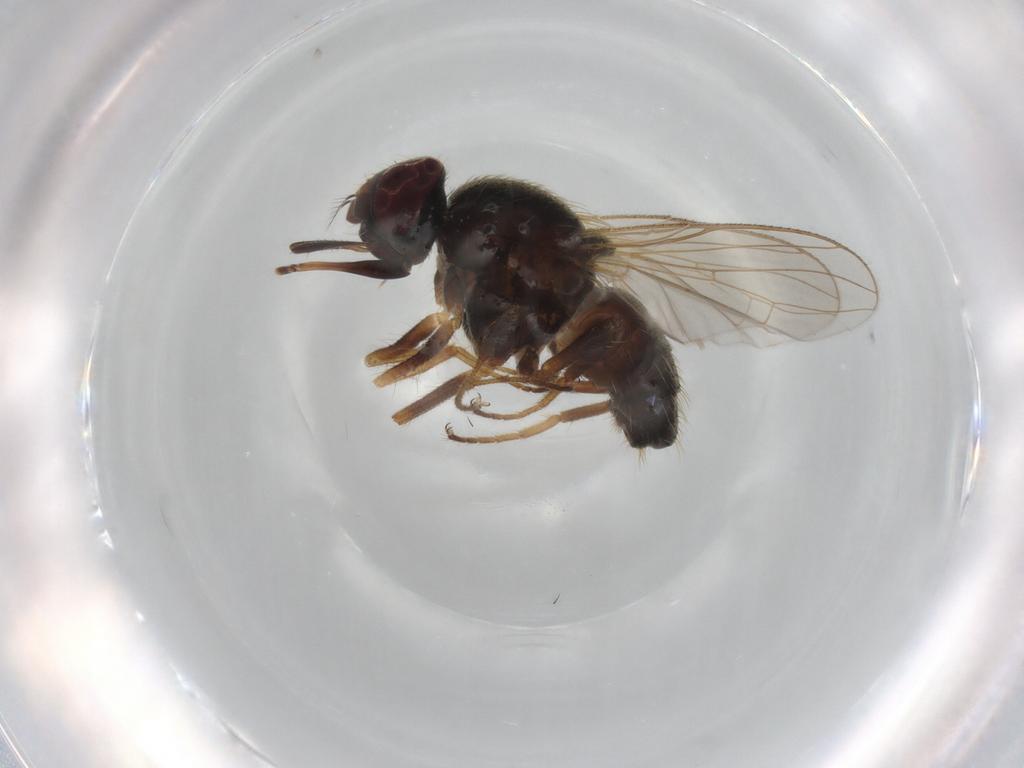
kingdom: Animalia
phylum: Arthropoda
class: Insecta
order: Diptera
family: Muscidae
